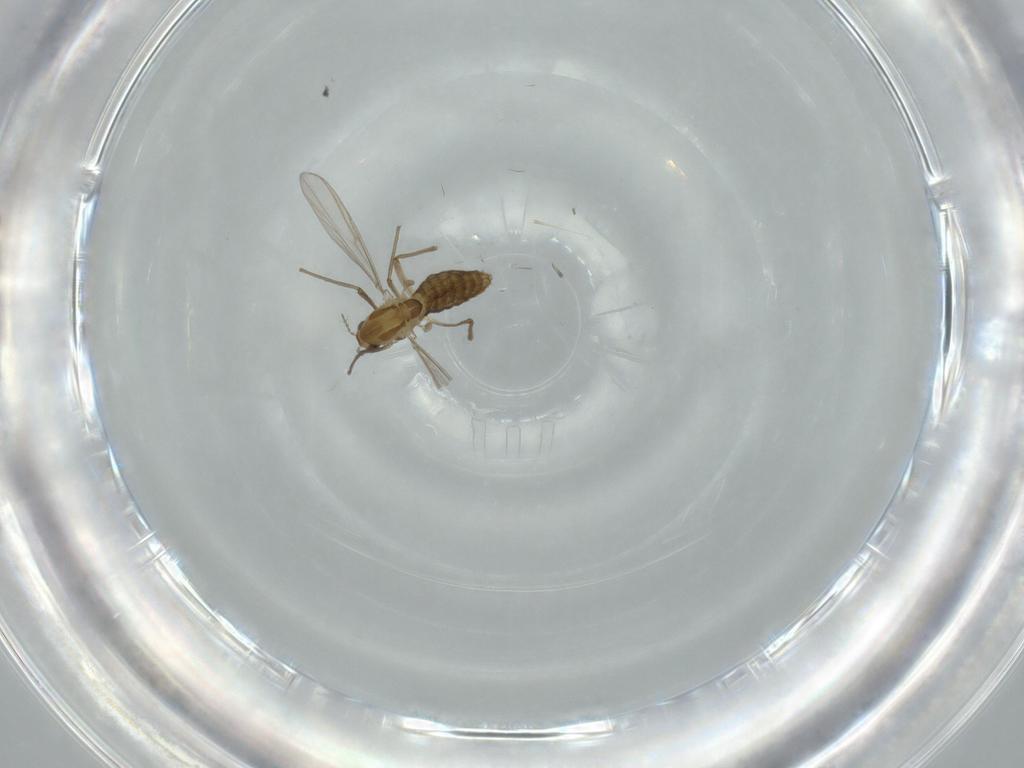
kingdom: Animalia
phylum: Arthropoda
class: Insecta
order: Diptera
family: Chironomidae
